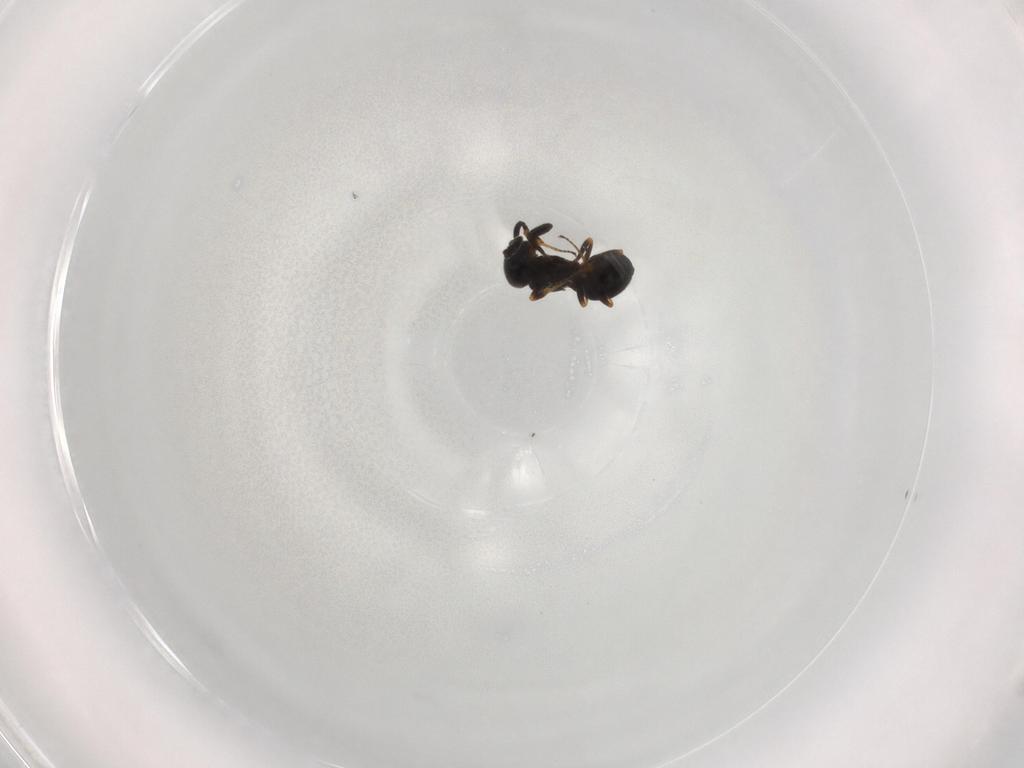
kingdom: Animalia
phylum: Arthropoda
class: Insecta
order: Hymenoptera
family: Scelionidae
